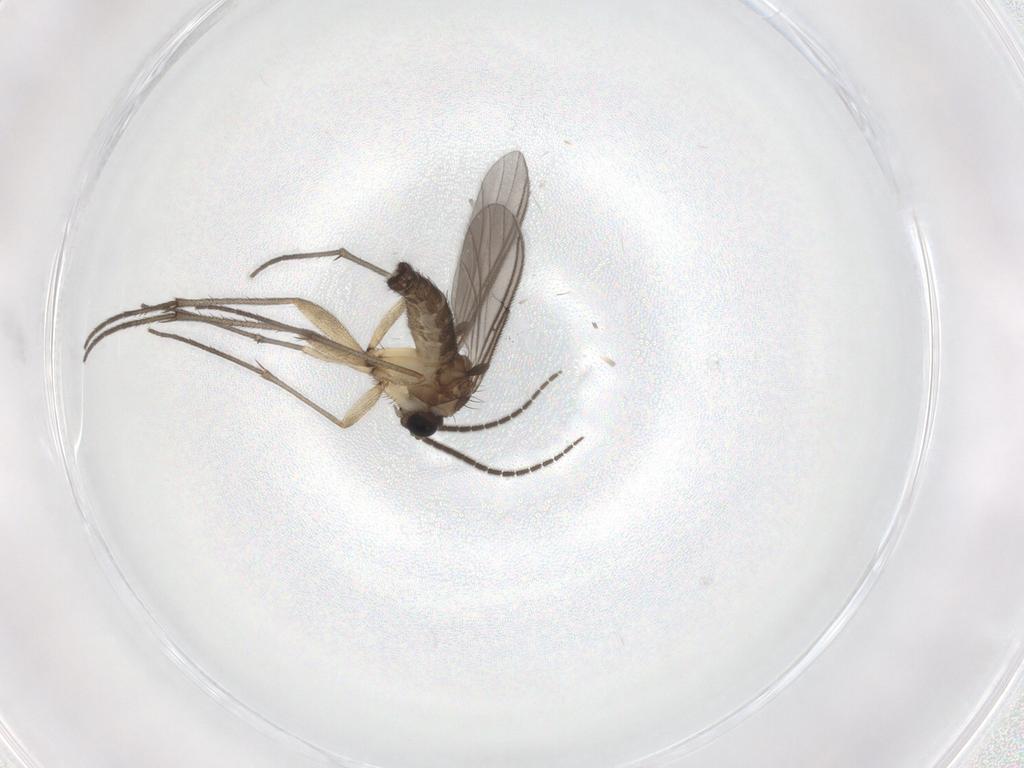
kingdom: Animalia
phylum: Arthropoda
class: Insecta
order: Diptera
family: Sciaridae
